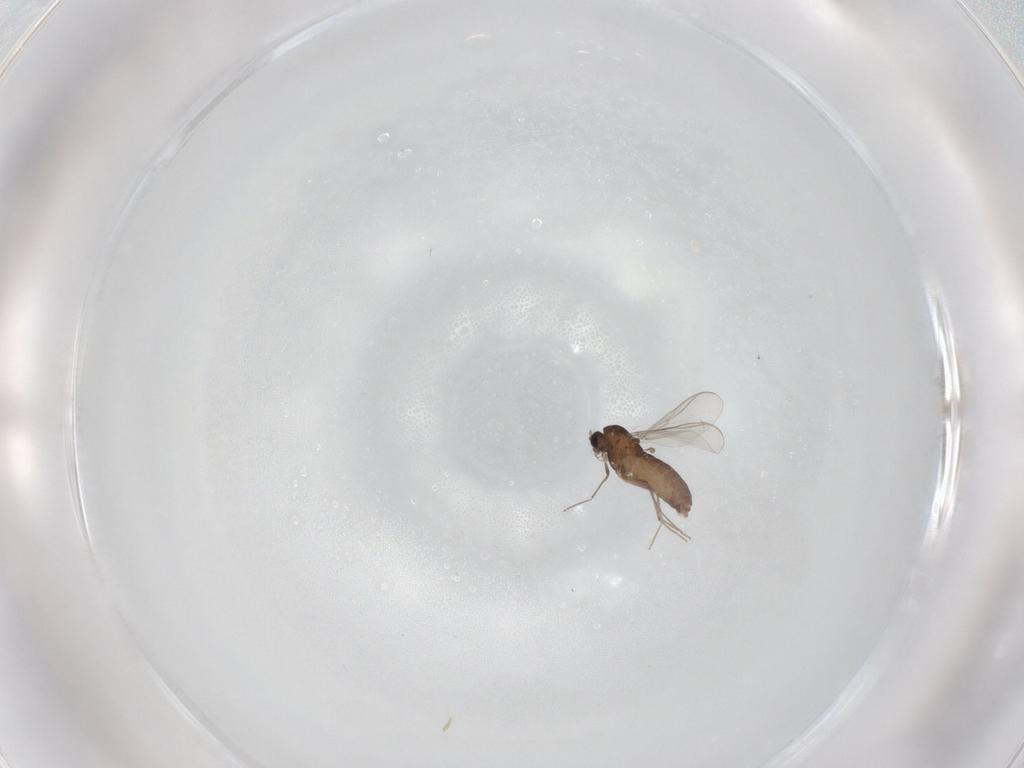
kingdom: Animalia
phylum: Arthropoda
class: Insecta
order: Diptera
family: Chironomidae
